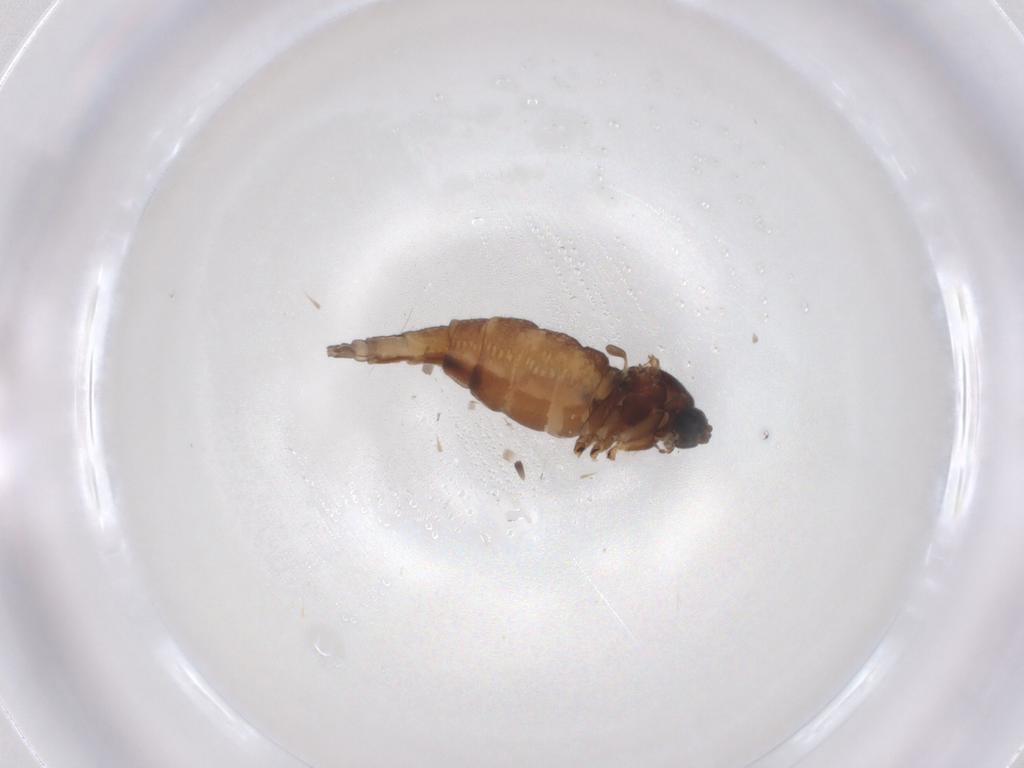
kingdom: Animalia
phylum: Arthropoda
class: Insecta
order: Diptera
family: Sciaridae
